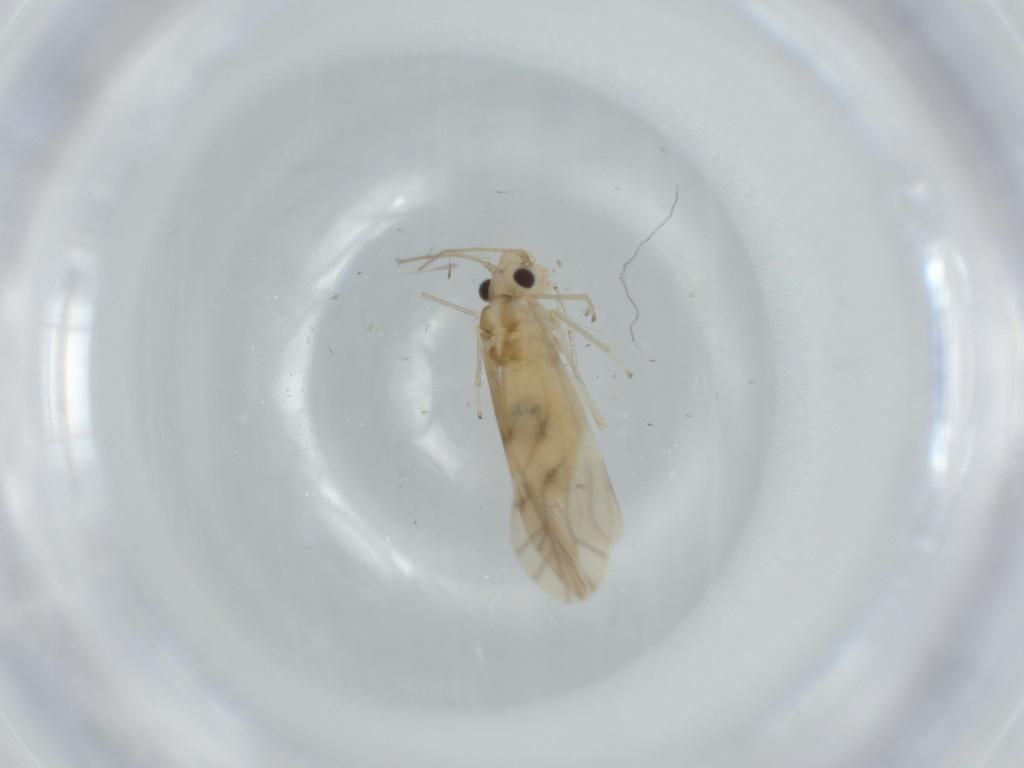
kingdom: Animalia
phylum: Arthropoda
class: Insecta
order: Psocodea
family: Caeciliusidae
